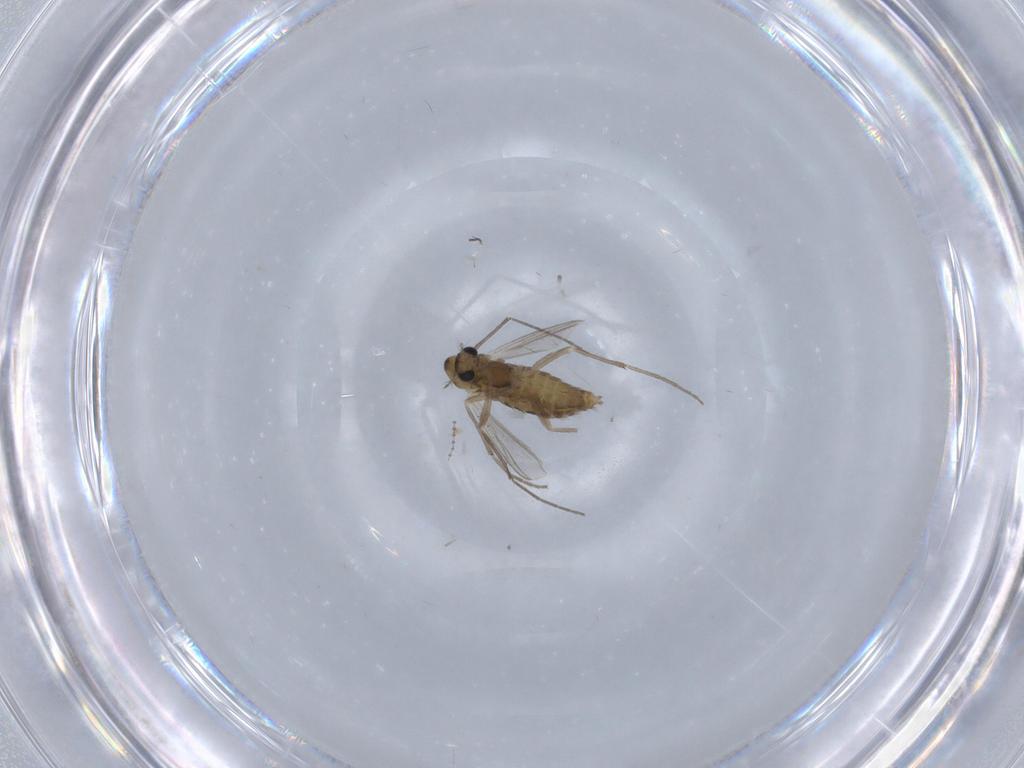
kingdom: Animalia
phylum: Arthropoda
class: Insecta
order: Diptera
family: Chironomidae
